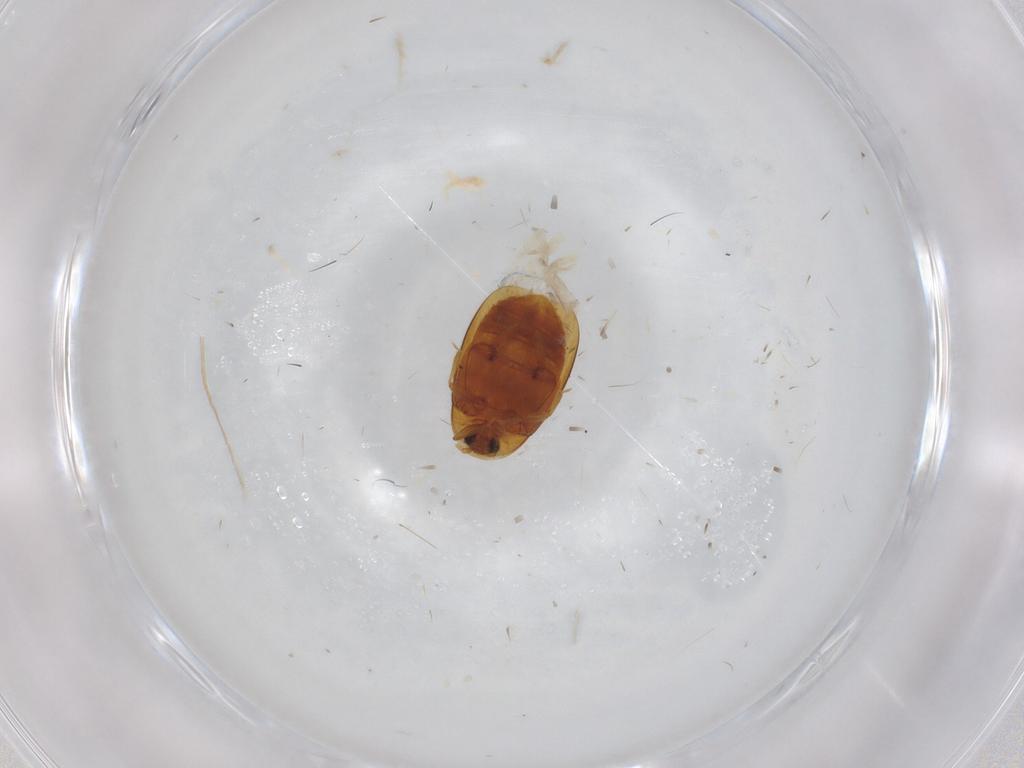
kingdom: Animalia
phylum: Arthropoda
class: Insecta
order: Coleoptera
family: Corylophidae
